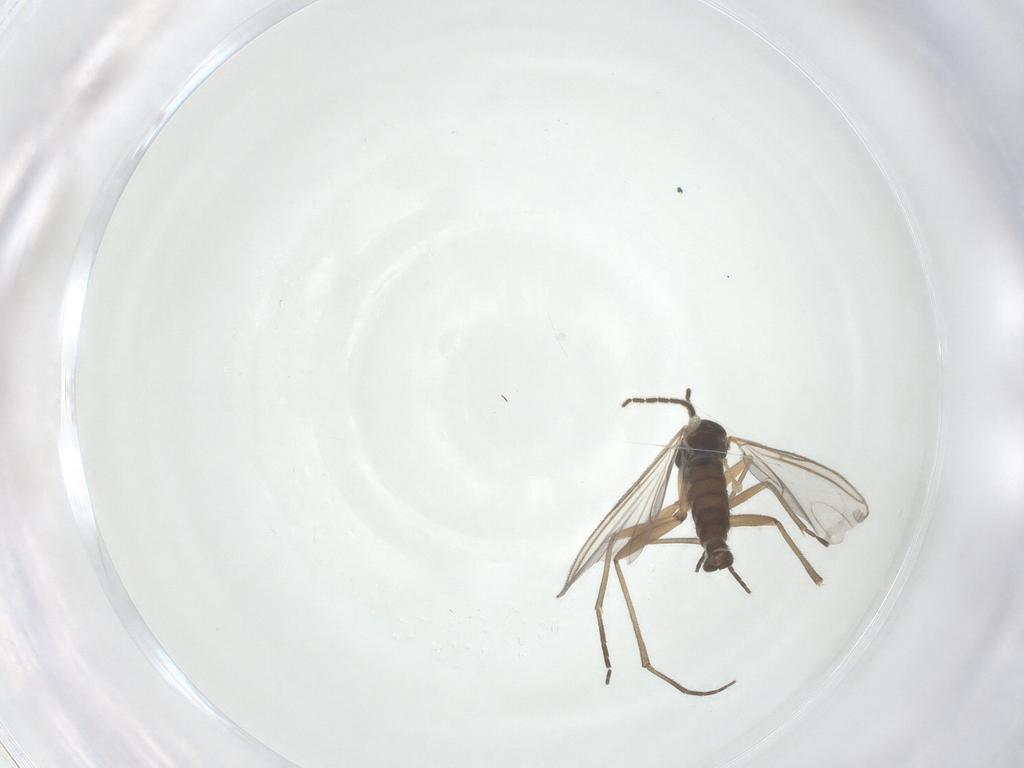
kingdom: Animalia
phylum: Arthropoda
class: Insecta
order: Diptera
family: Sciaridae
